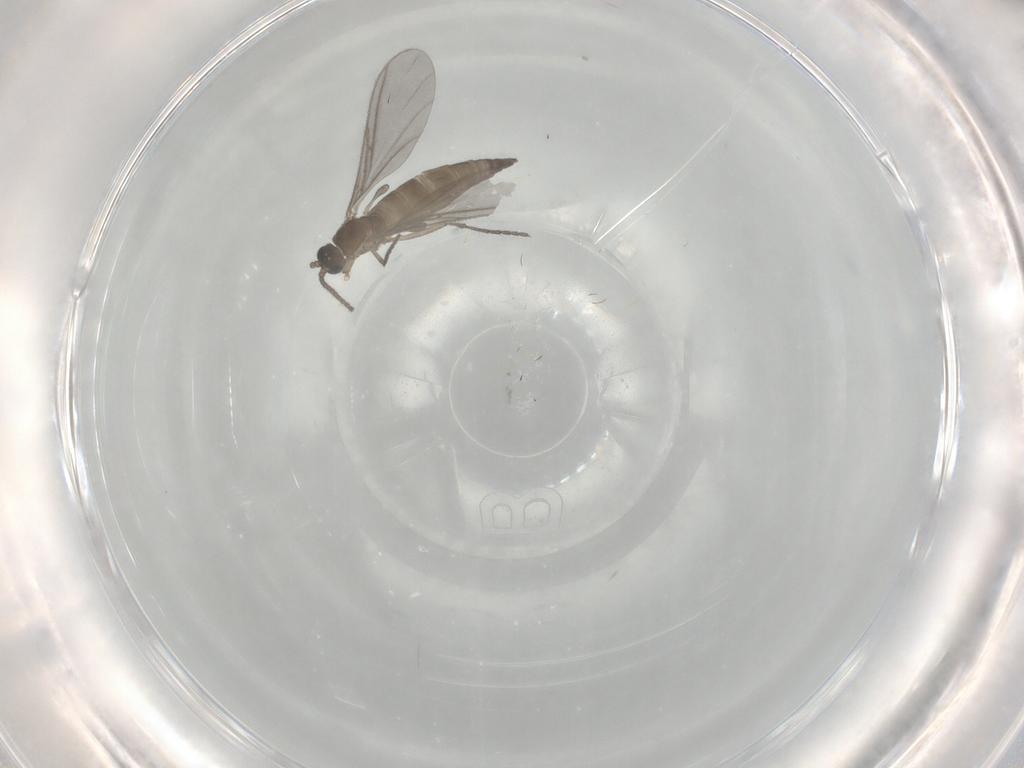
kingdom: Animalia
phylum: Arthropoda
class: Insecta
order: Diptera
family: Sciaridae
